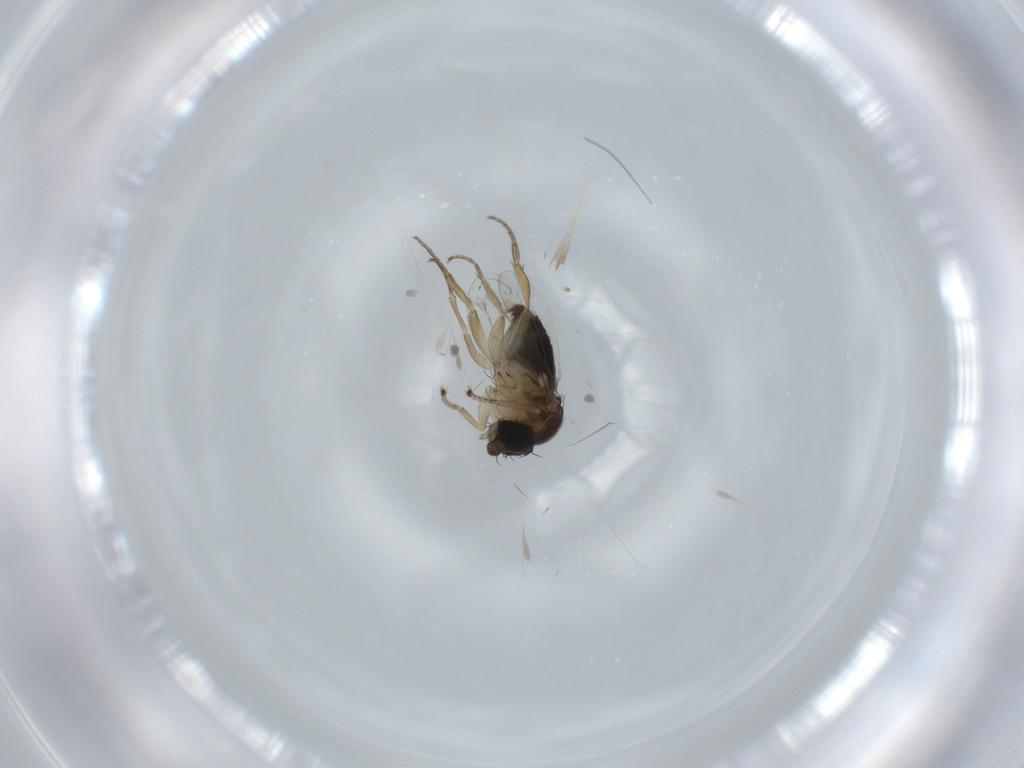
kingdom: Animalia
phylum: Arthropoda
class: Insecta
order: Diptera
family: Phoridae
